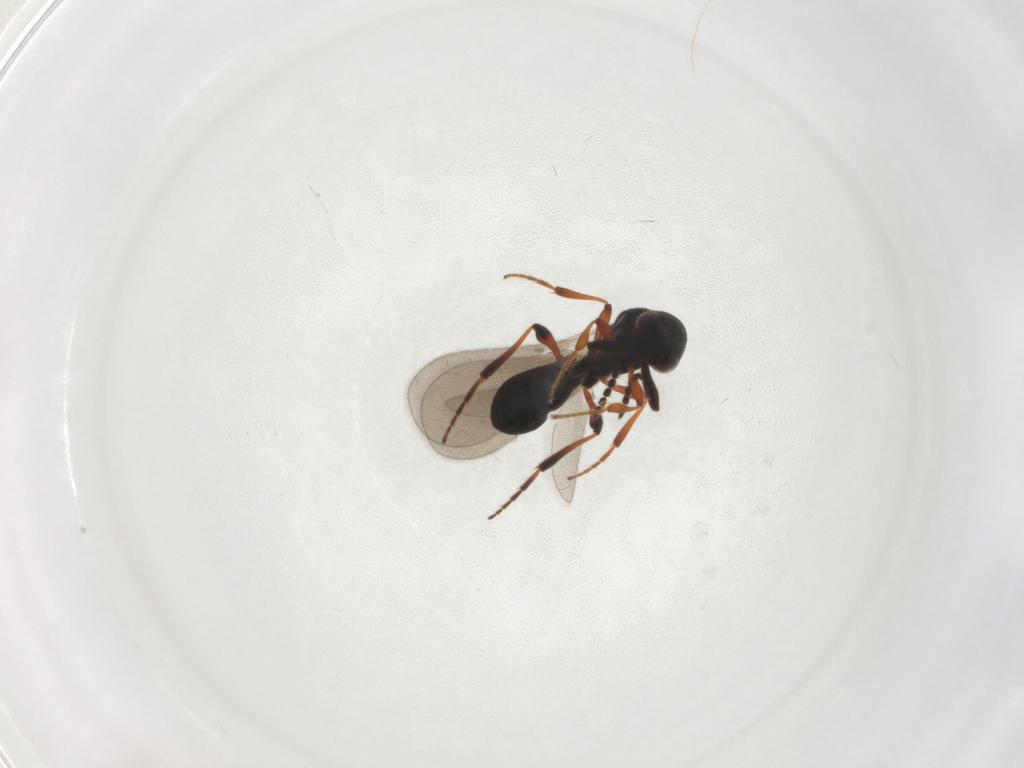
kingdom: Animalia
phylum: Arthropoda
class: Insecta
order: Hymenoptera
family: Platygastridae
